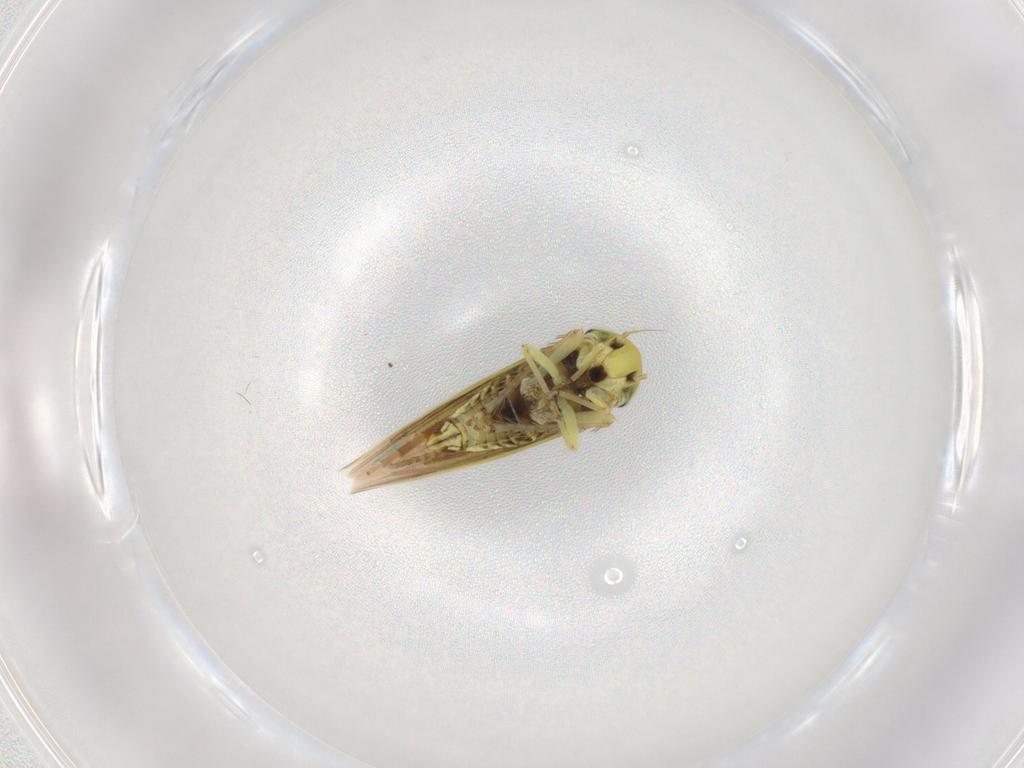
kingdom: Animalia
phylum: Arthropoda
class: Insecta
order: Hemiptera
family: Cicadellidae
